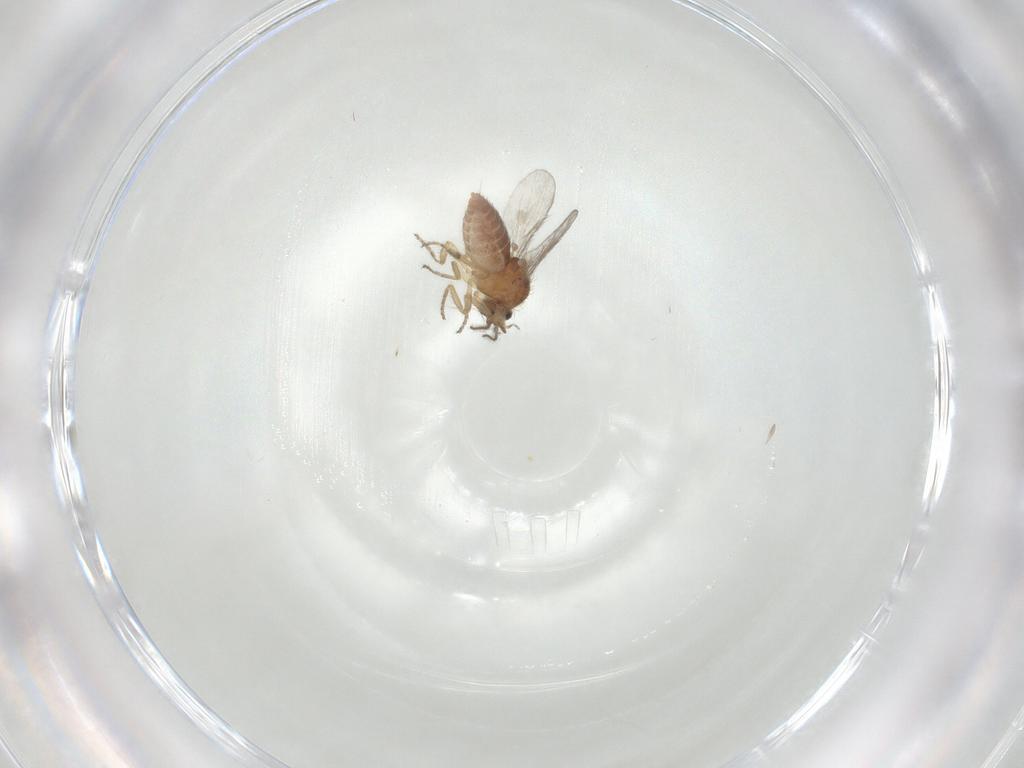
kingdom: Animalia
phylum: Arthropoda
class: Insecta
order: Diptera
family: Ceratopogonidae
